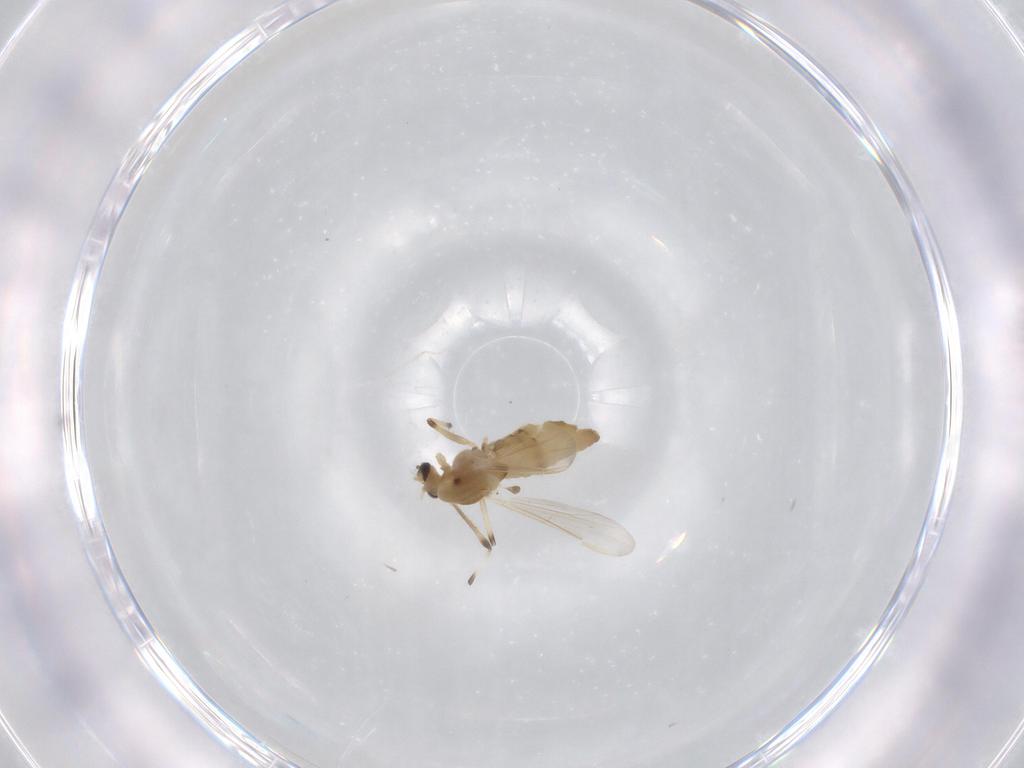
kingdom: Animalia
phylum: Arthropoda
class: Insecta
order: Diptera
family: Chironomidae
